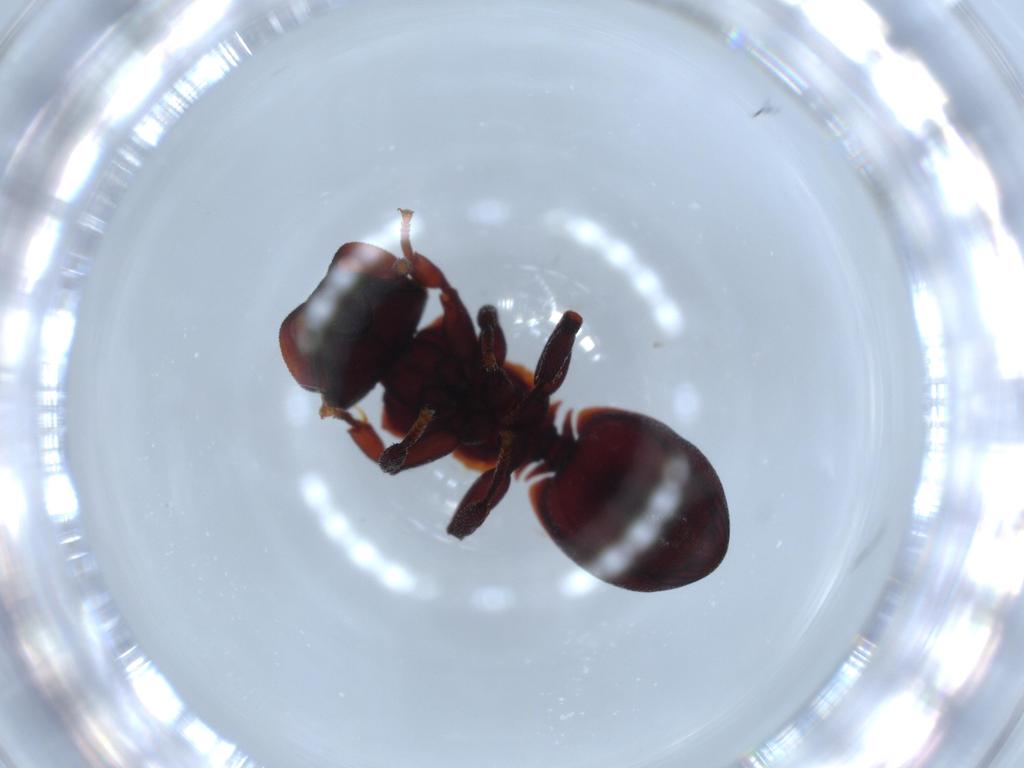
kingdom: Animalia
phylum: Arthropoda
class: Insecta
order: Hymenoptera
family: Formicidae
